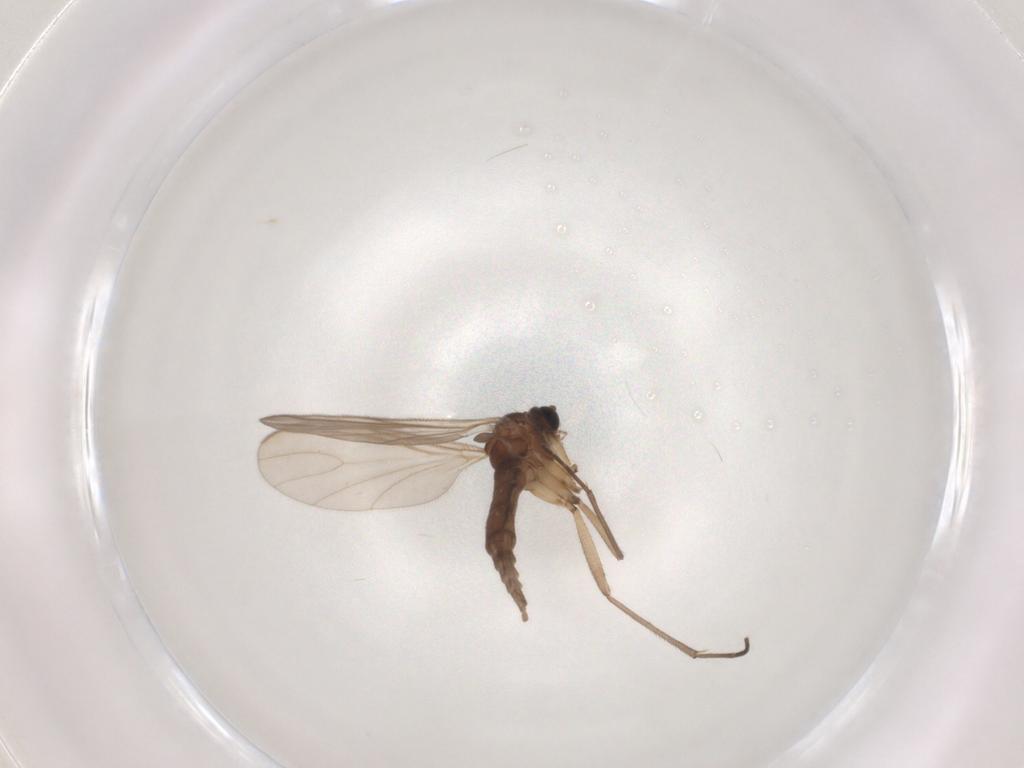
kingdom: Animalia
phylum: Arthropoda
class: Insecta
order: Diptera
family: Sciaridae
